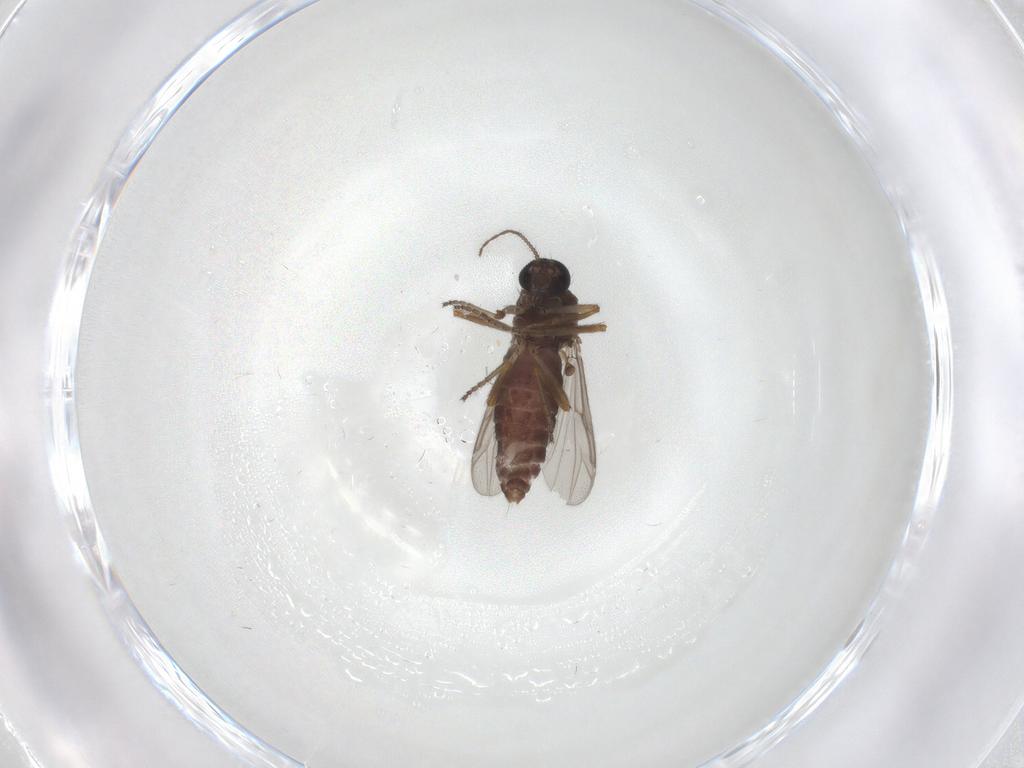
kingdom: Animalia
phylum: Arthropoda
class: Insecta
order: Diptera
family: Ceratopogonidae
